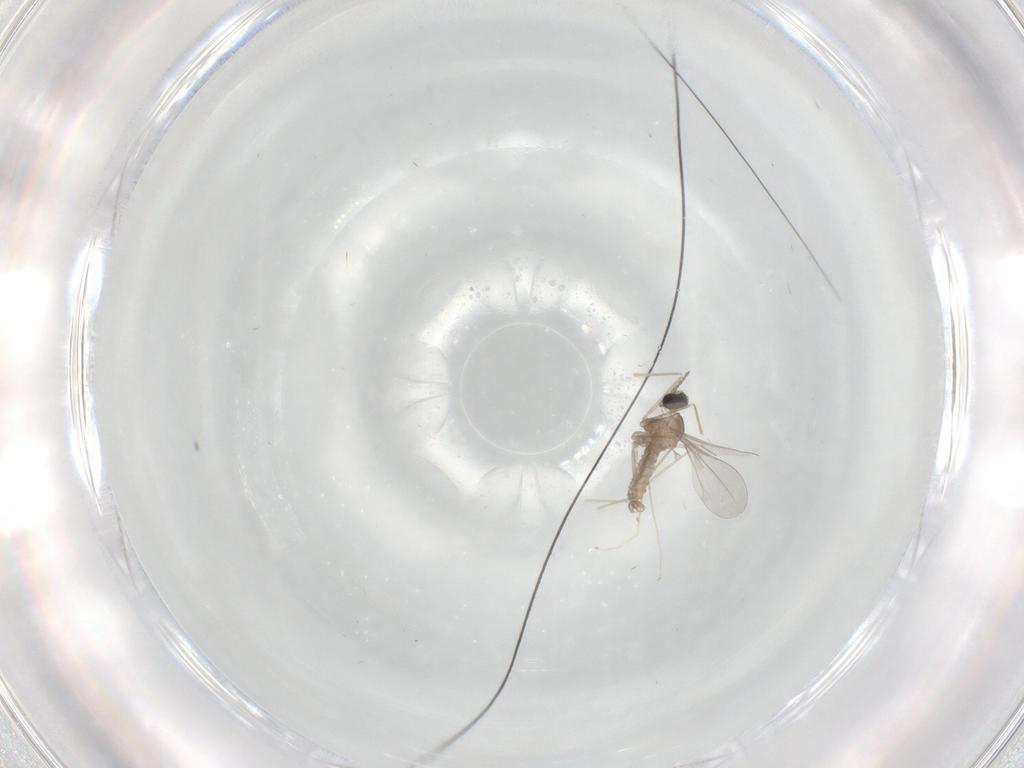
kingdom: Animalia
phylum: Arthropoda
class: Insecta
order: Diptera
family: Cecidomyiidae
